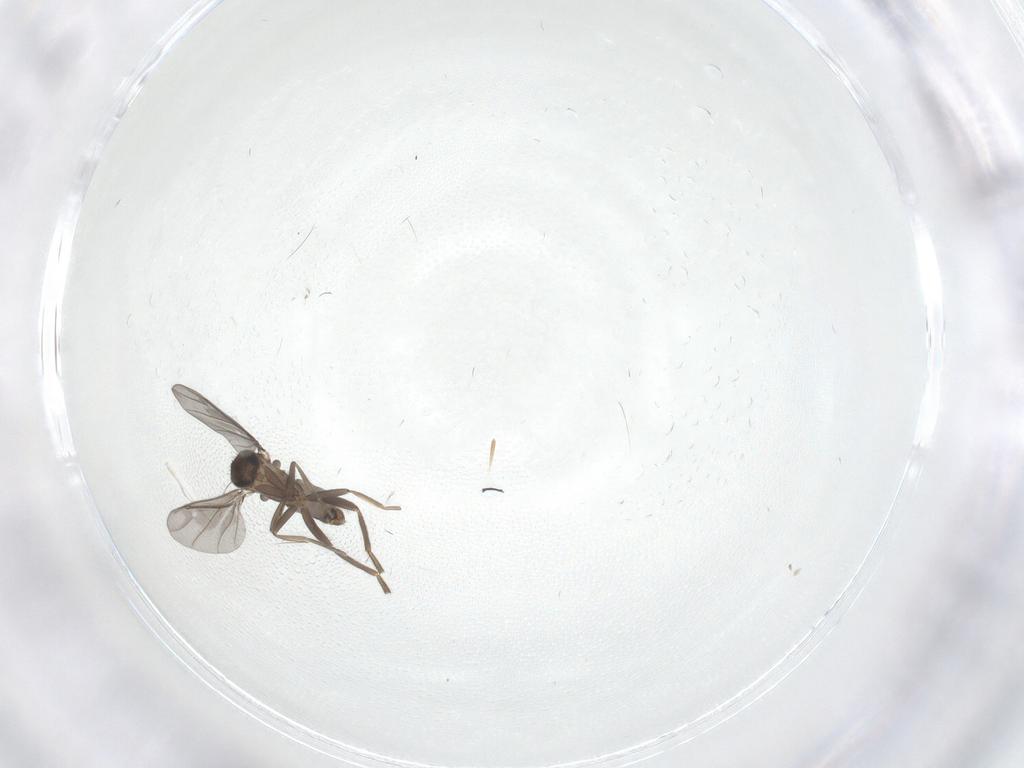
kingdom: Animalia
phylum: Arthropoda
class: Insecta
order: Diptera
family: Phoridae
